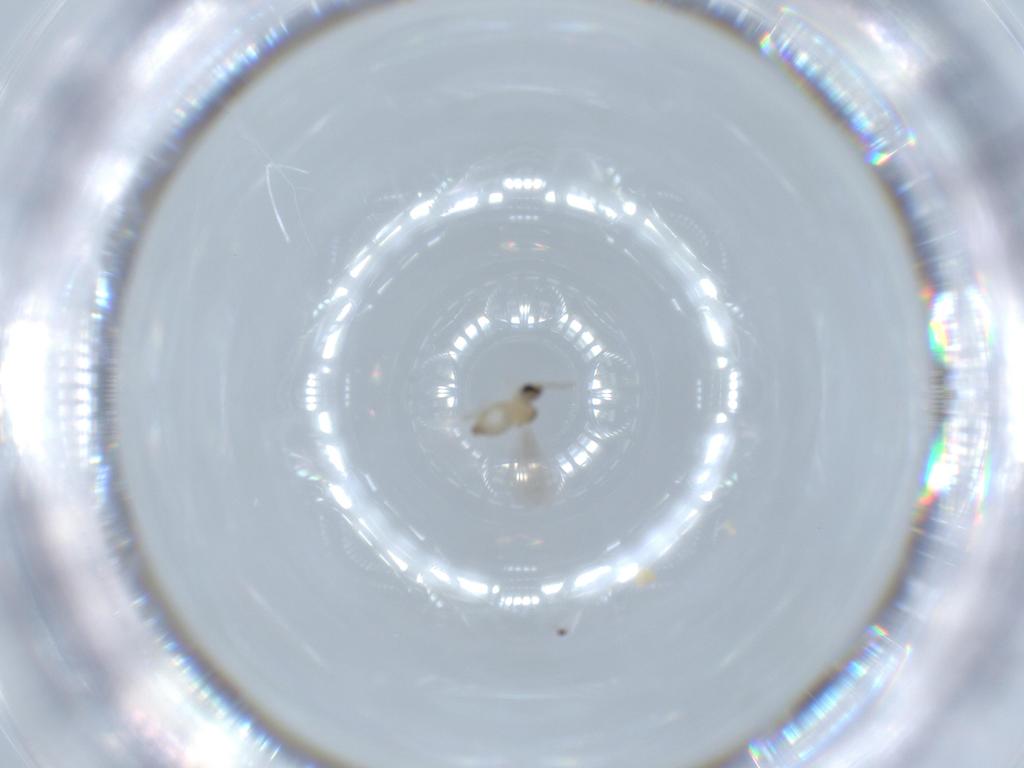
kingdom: Animalia
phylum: Arthropoda
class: Insecta
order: Diptera
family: Cecidomyiidae
